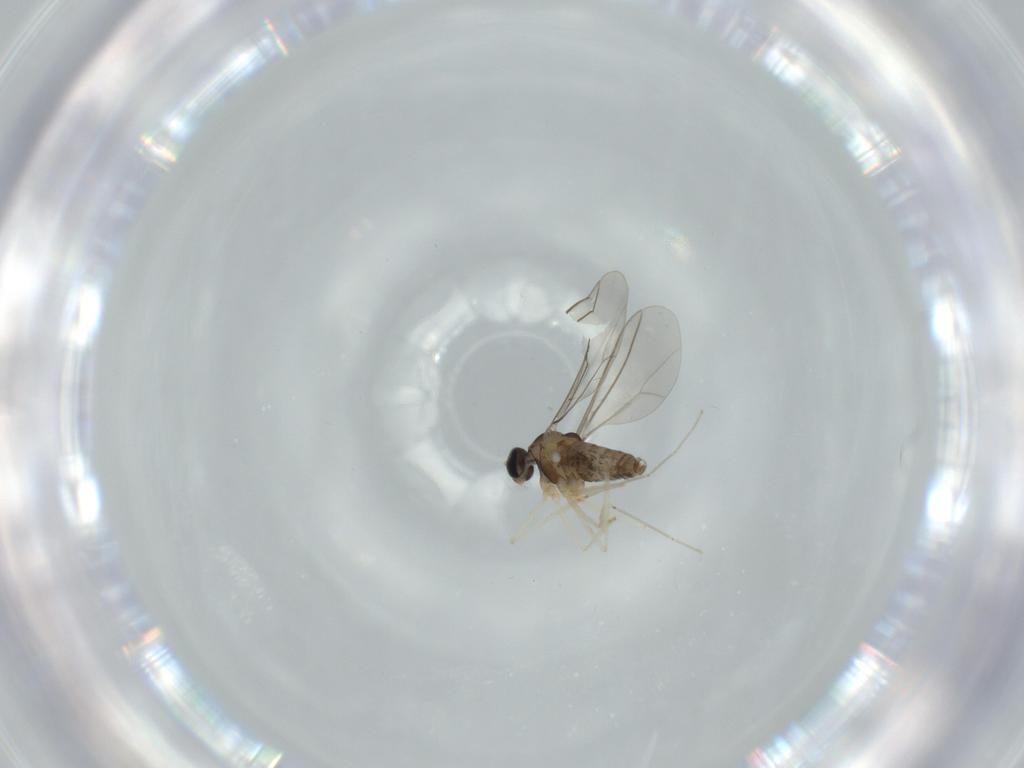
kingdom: Animalia
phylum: Arthropoda
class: Insecta
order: Diptera
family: Cecidomyiidae
